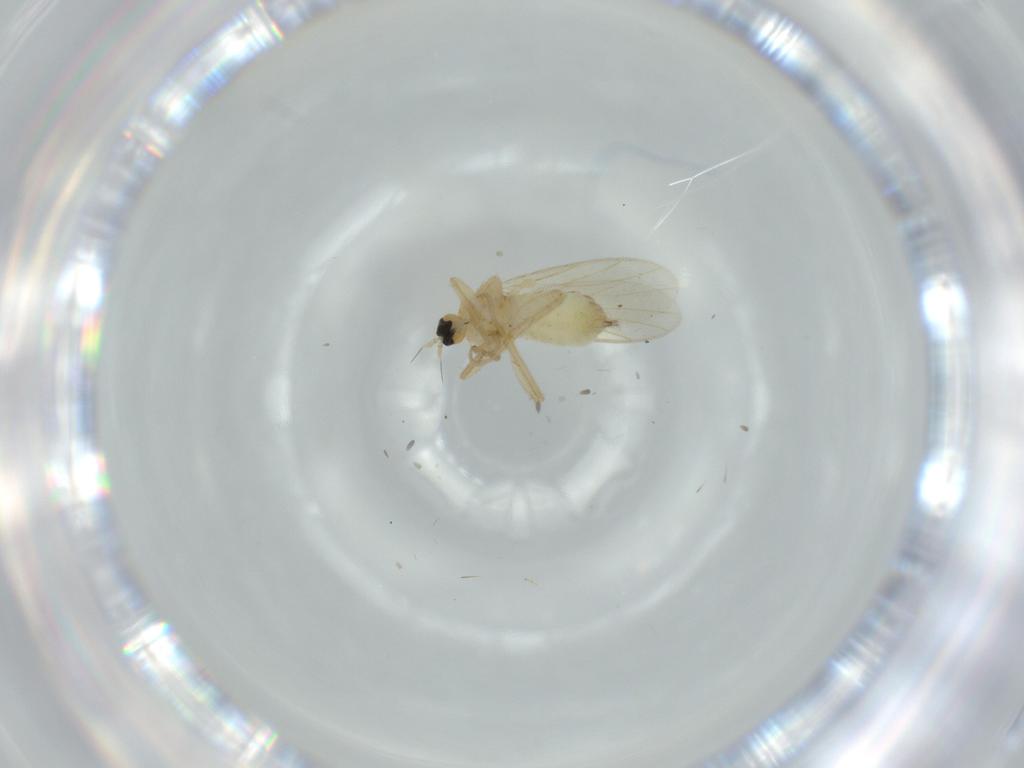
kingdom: Animalia
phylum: Arthropoda
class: Insecta
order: Diptera
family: Hybotidae
